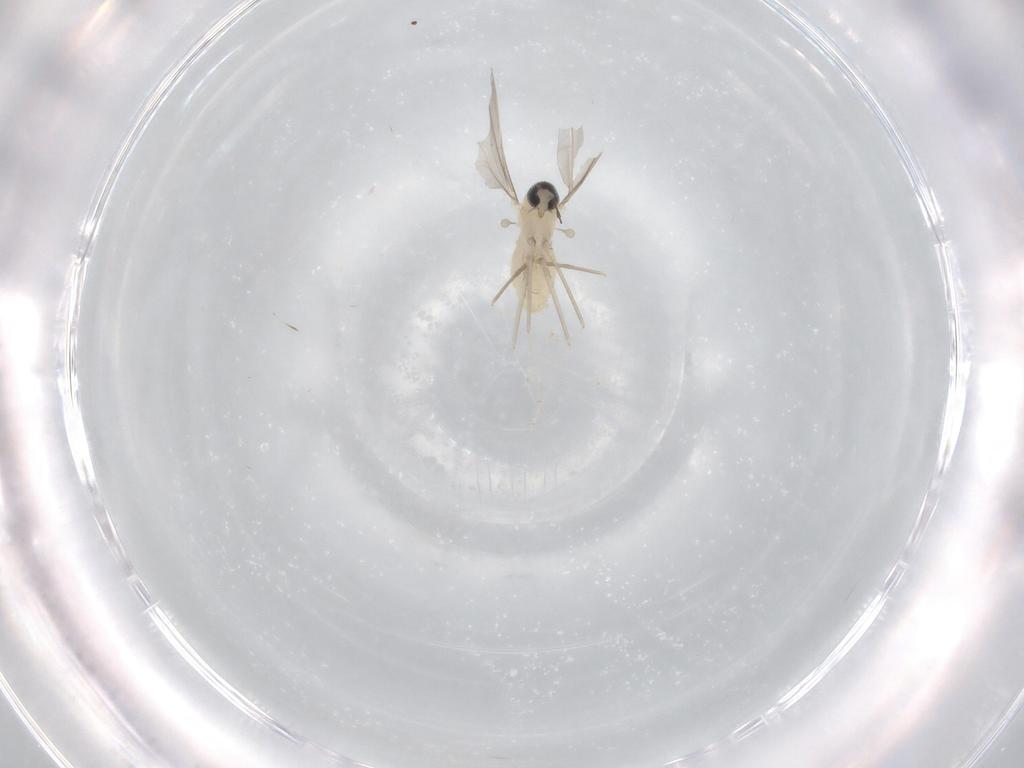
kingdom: Animalia
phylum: Arthropoda
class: Insecta
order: Diptera
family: Cecidomyiidae
